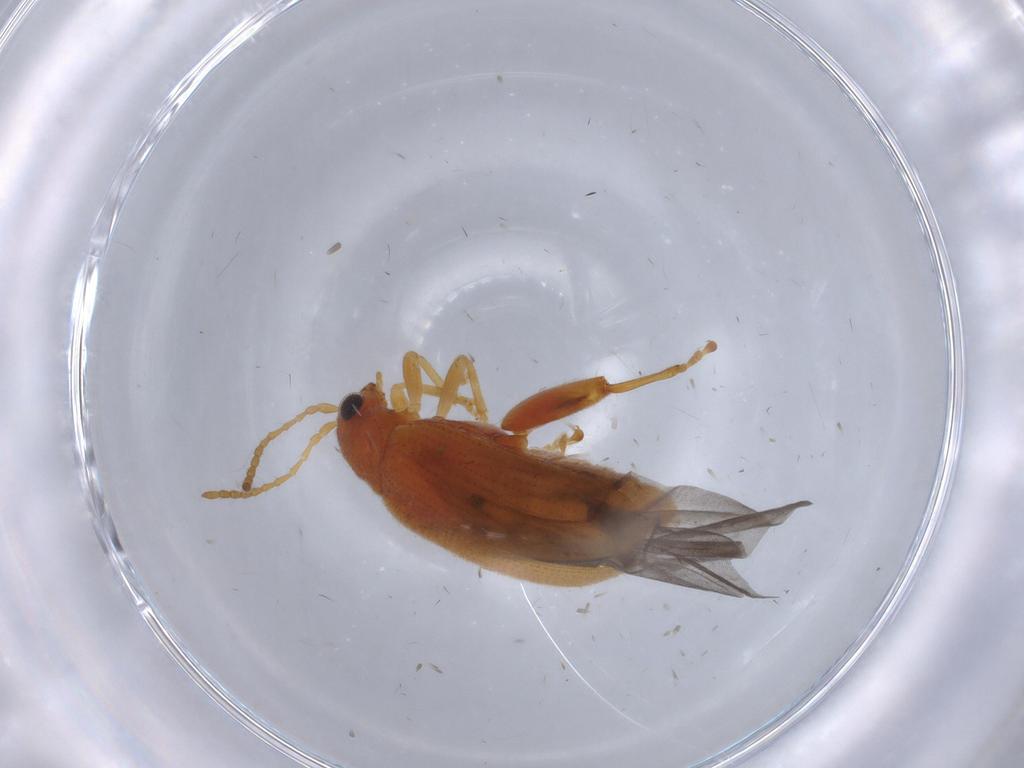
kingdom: Animalia
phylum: Arthropoda
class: Insecta
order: Coleoptera
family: Chrysomelidae
